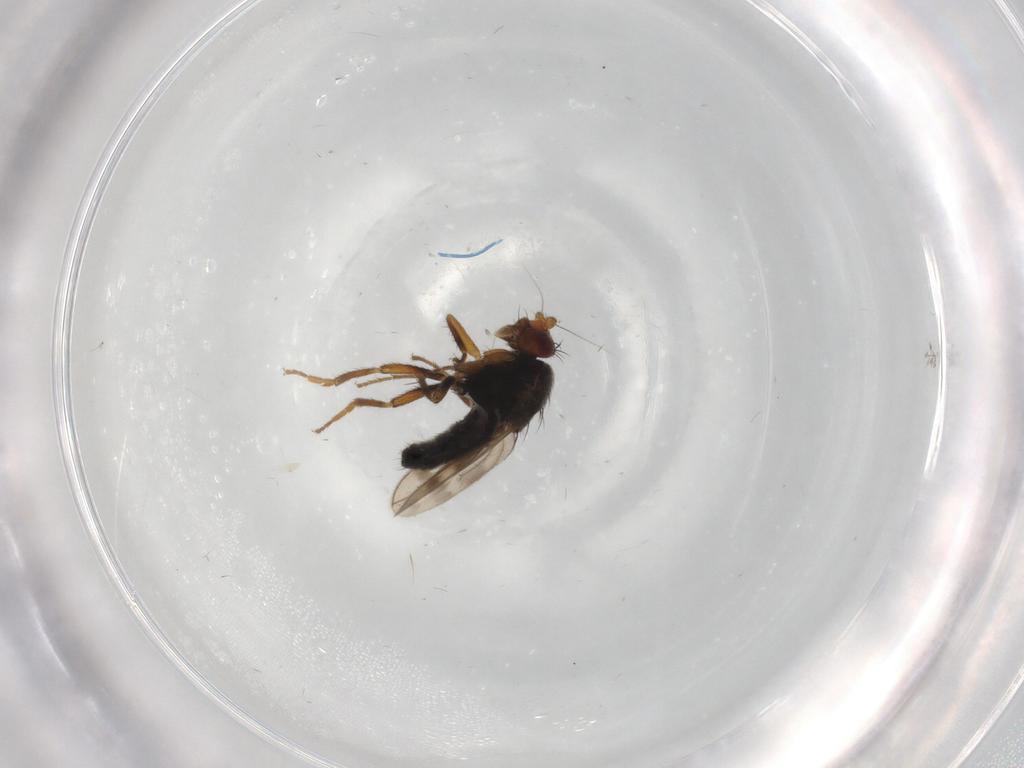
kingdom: Animalia
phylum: Arthropoda
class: Insecta
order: Diptera
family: Sphaeroceridae
